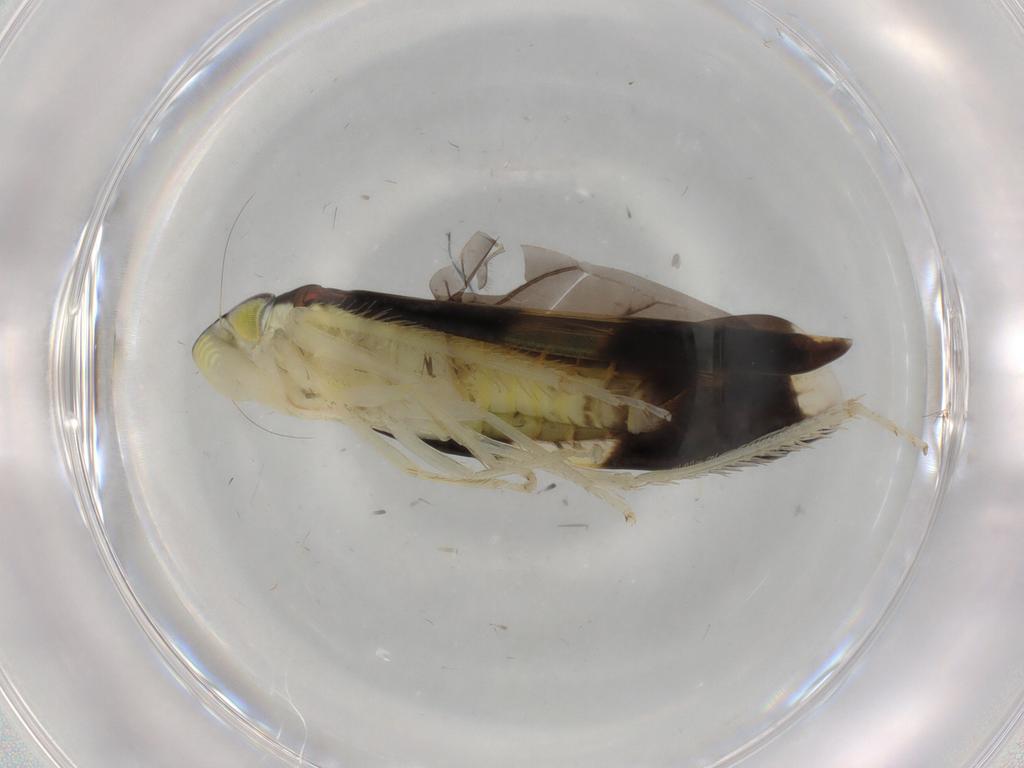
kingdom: Animalia
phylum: Arthropoda
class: Insecta
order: Hemiptera
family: Cicadellidae
